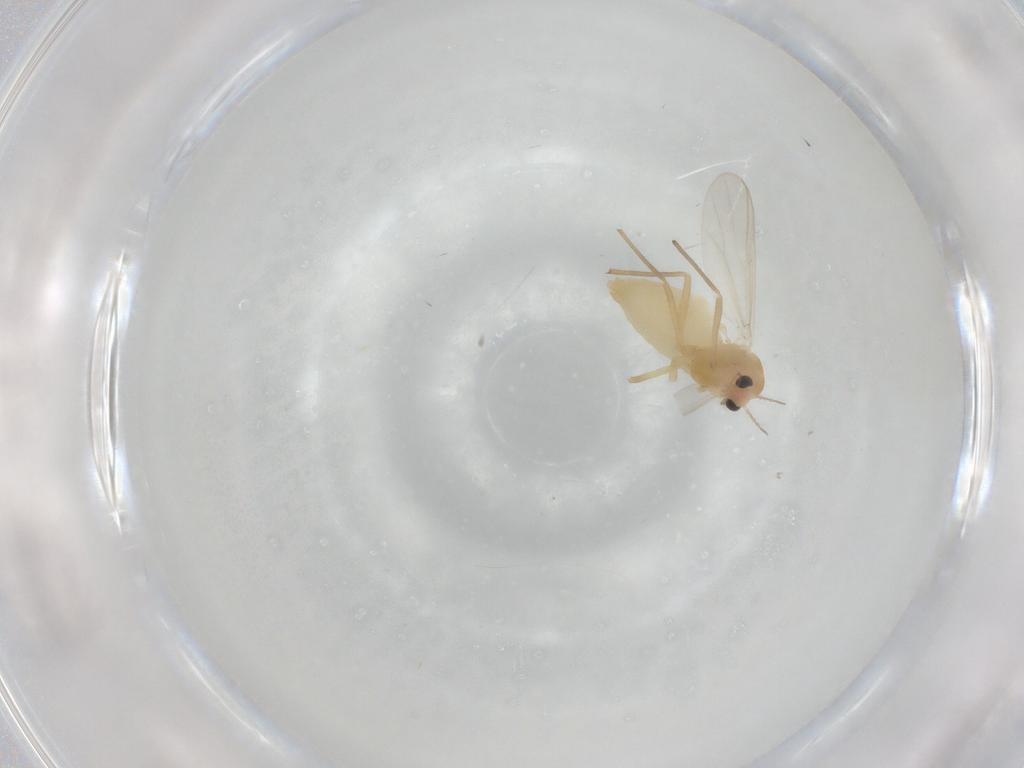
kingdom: Animalia
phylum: Arthropoda
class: Insecta
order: Diptera
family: Chironomidae
